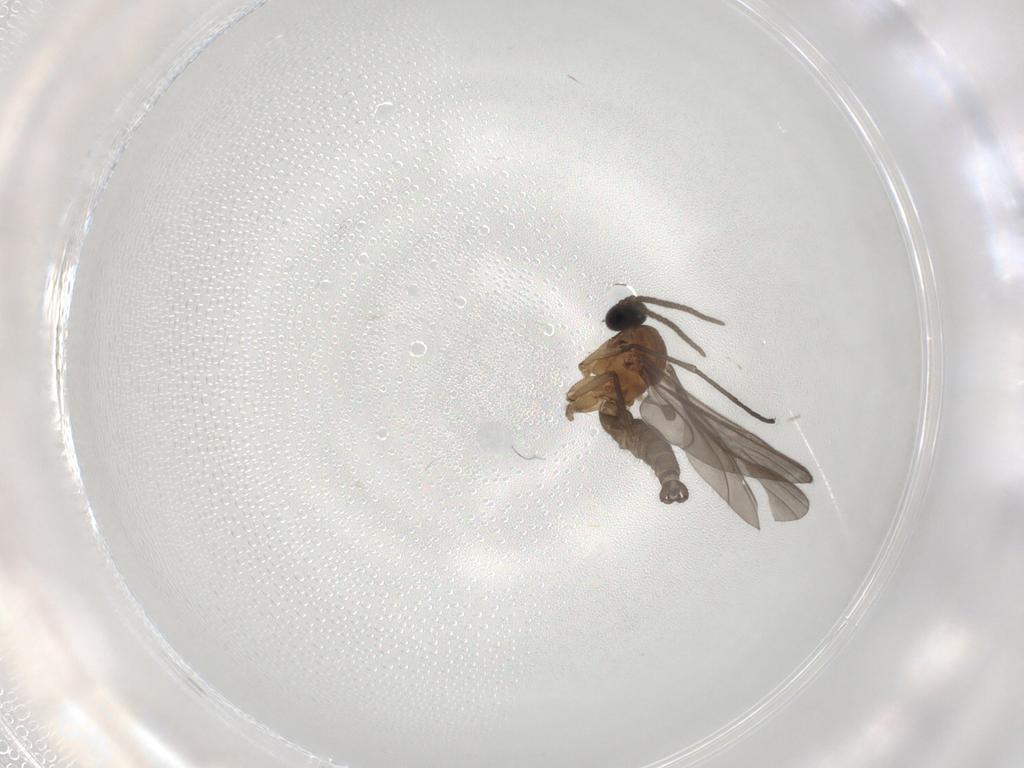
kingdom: Animalia
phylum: Arthropoda
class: Insecta
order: Diptera
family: Sciaridae
